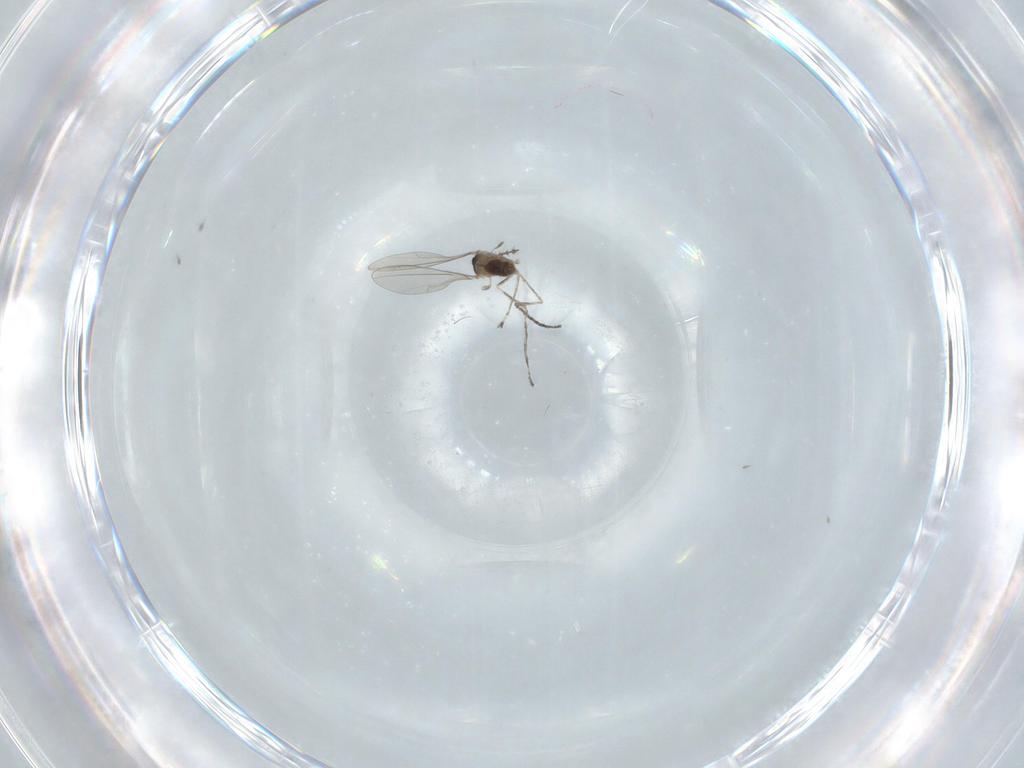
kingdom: Animalia
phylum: Arthropoda
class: Insecta
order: Diptera
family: Cecidomyiidae
